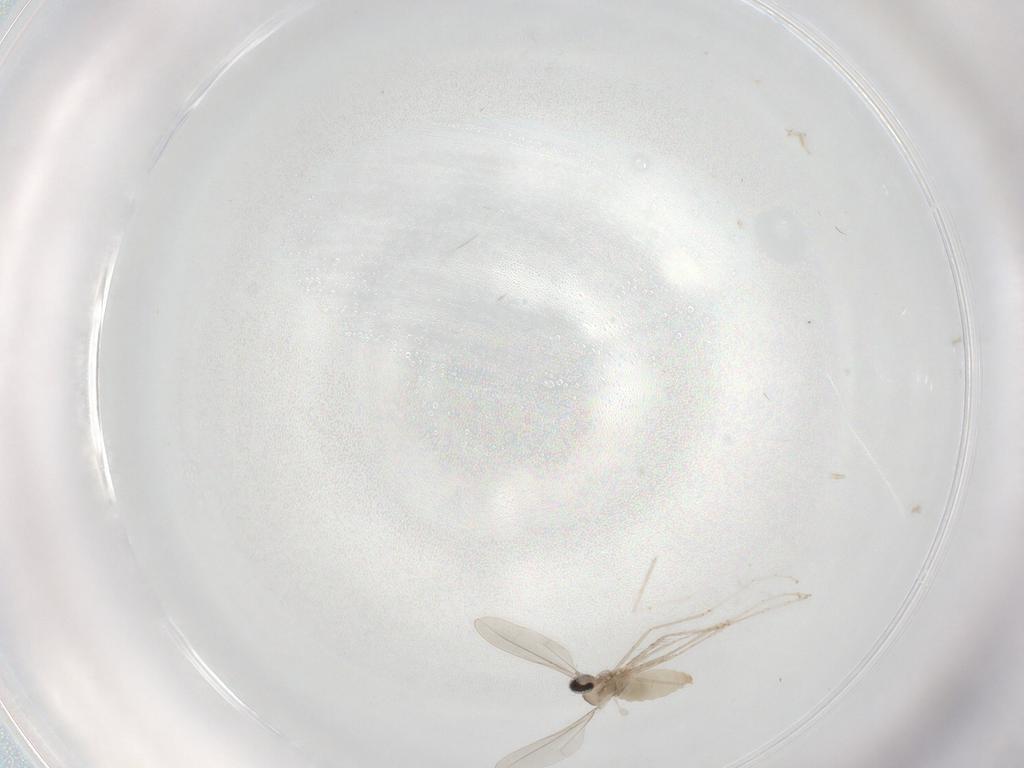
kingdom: Animalia
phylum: Arthropoda
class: Insecta
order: Diptera
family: Cecidomyiidae
